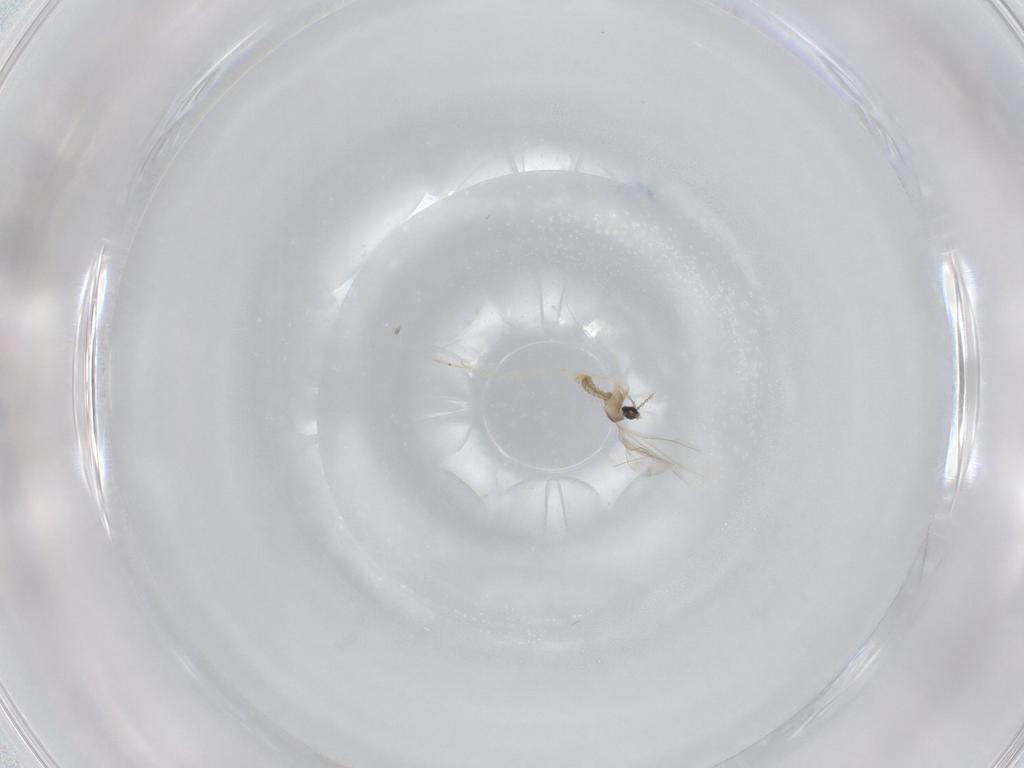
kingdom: Animalia
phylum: Arthropoda
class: Insecta
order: Diptera
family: Cecidomyiidae
